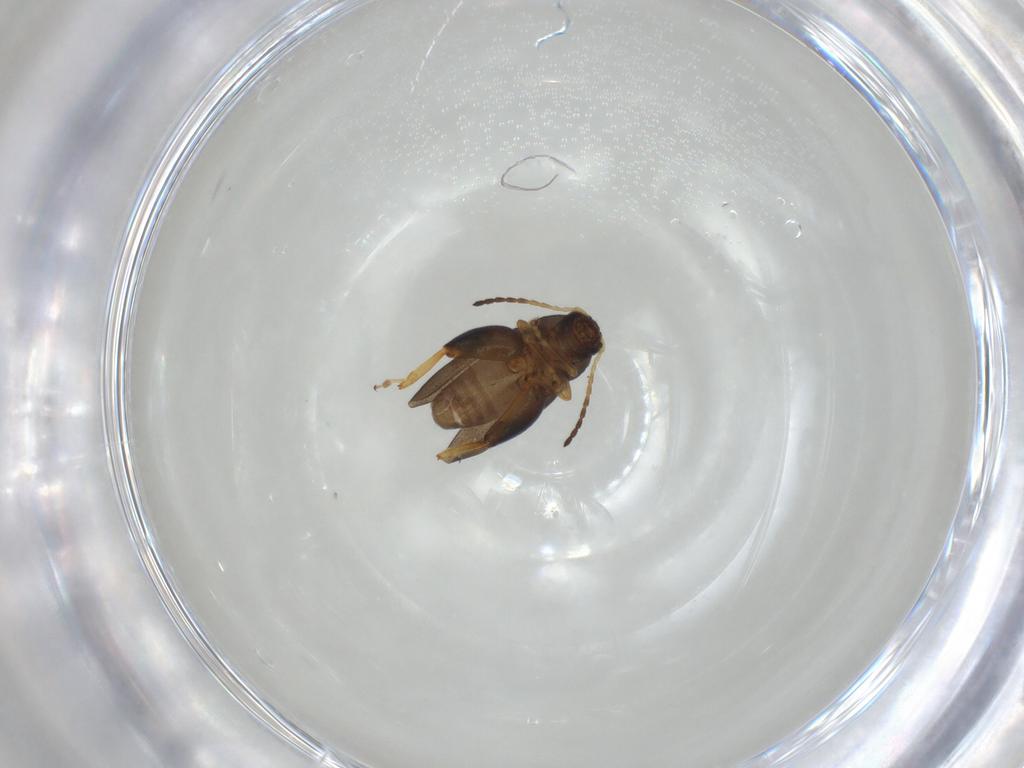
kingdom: Animalia
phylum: Arthropoda
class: Insecta
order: Coleoptera
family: Chrysomelidae
